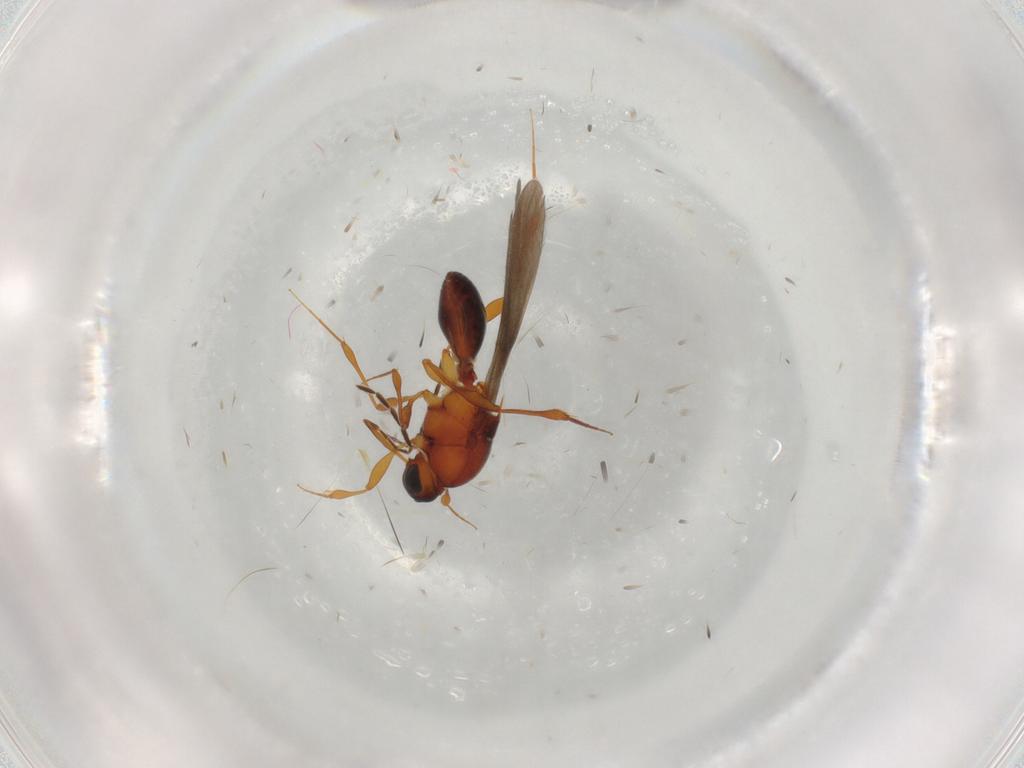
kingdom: Animalia
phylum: Arthropoda
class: Insecta
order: Hymenoptera
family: Platygastridae
